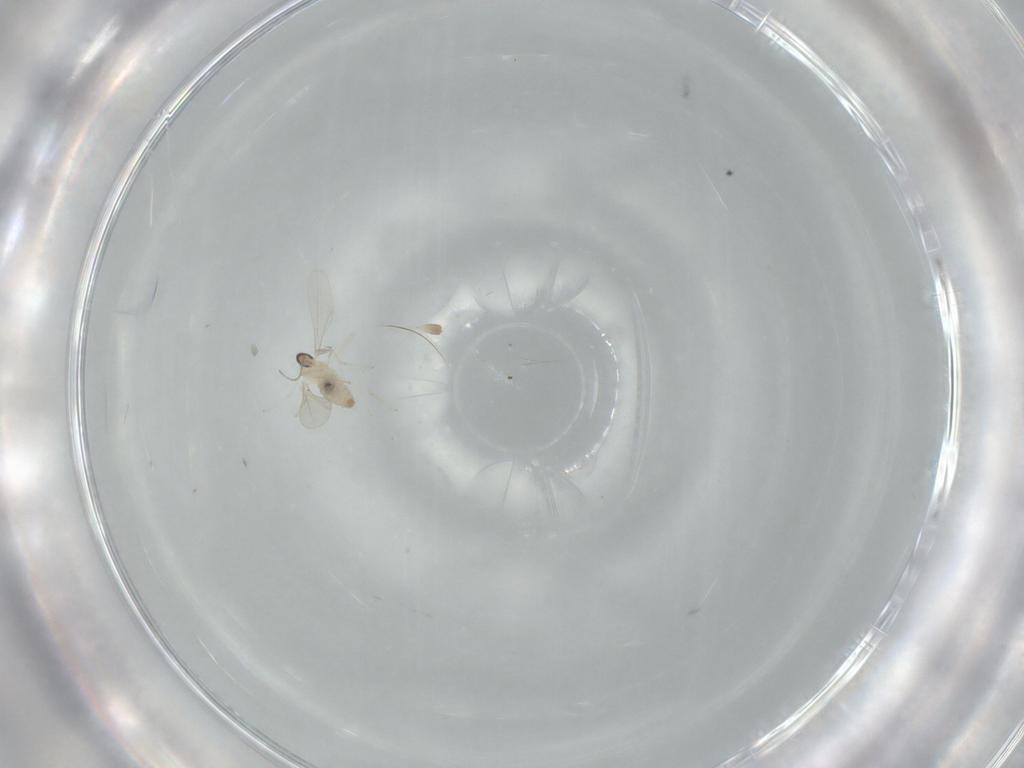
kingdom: Animalia
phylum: Arthropoda
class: Insecta
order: Diptera
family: Cecidomyiidae
